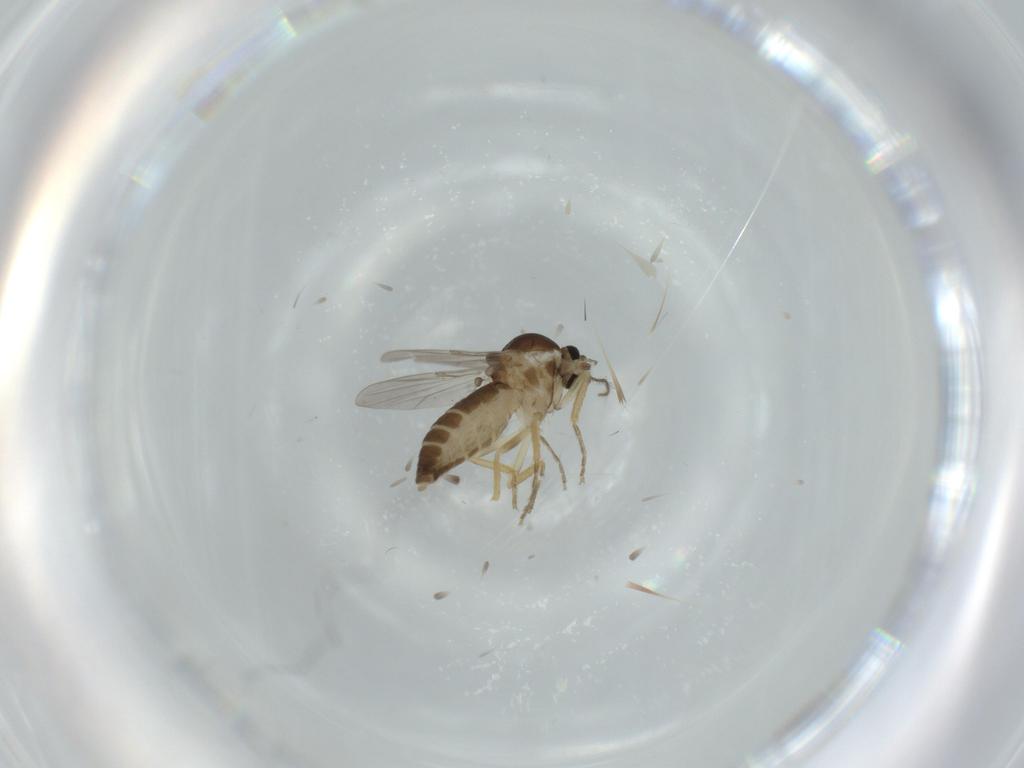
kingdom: Animalia
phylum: Arthropoda
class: Insecta
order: Diptera
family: Ceratopogonidae
